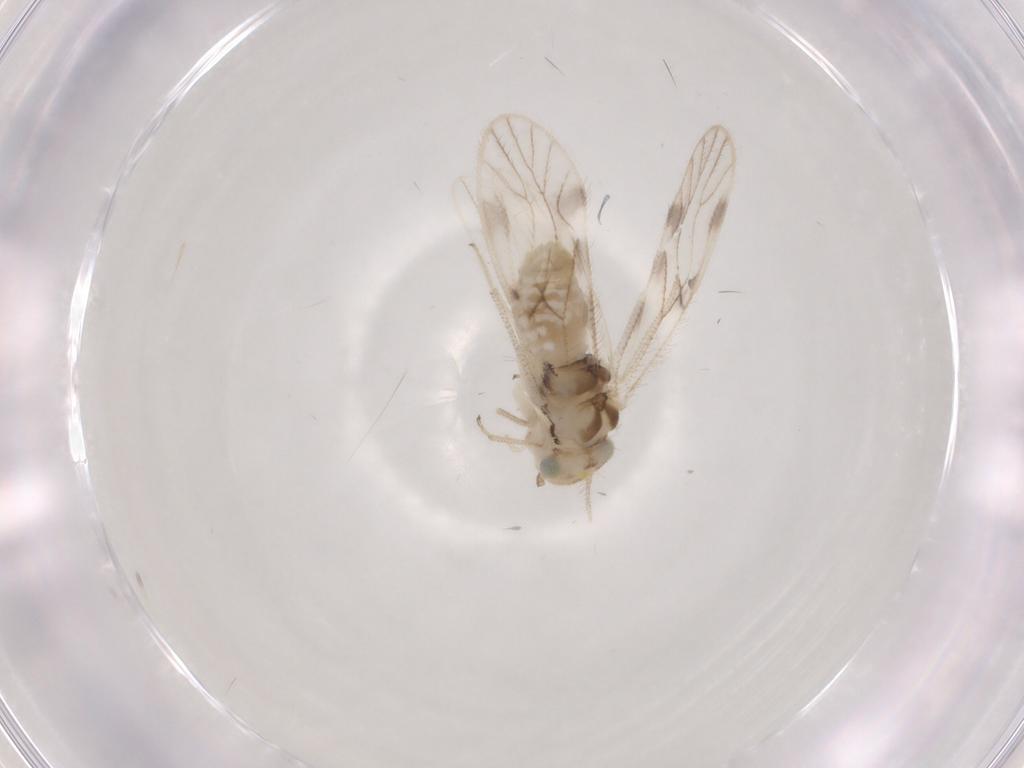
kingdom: Animalia
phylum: Arthropoda
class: Insecta
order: Psocodea
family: Caeciliusidae
